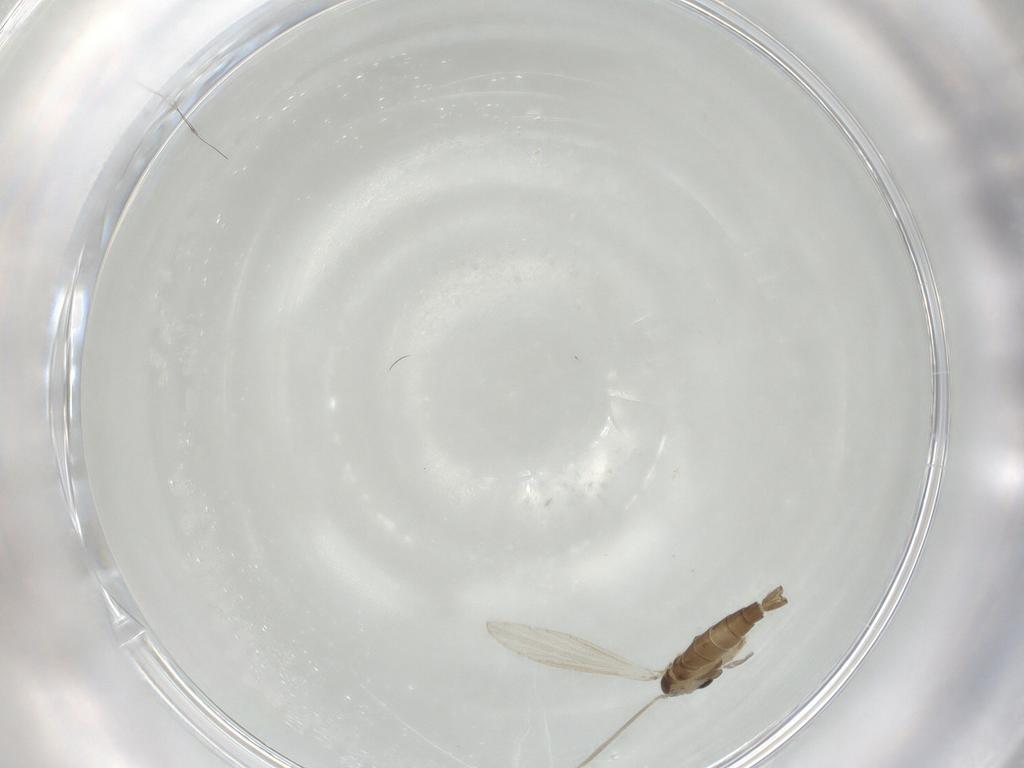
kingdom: Animalia
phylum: Arthropoda
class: Insecta
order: Diptera
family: Psychodidae
